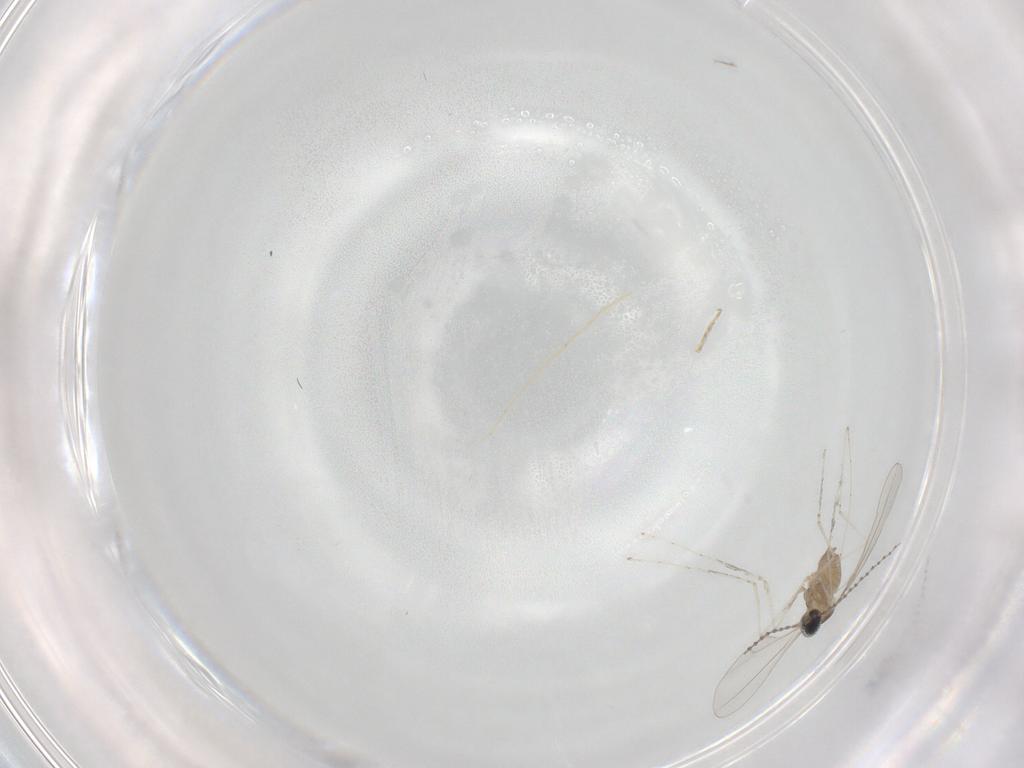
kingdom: Animalia
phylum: Arthropoda
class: Insecta
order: Diptera
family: Cecidomyiidae
